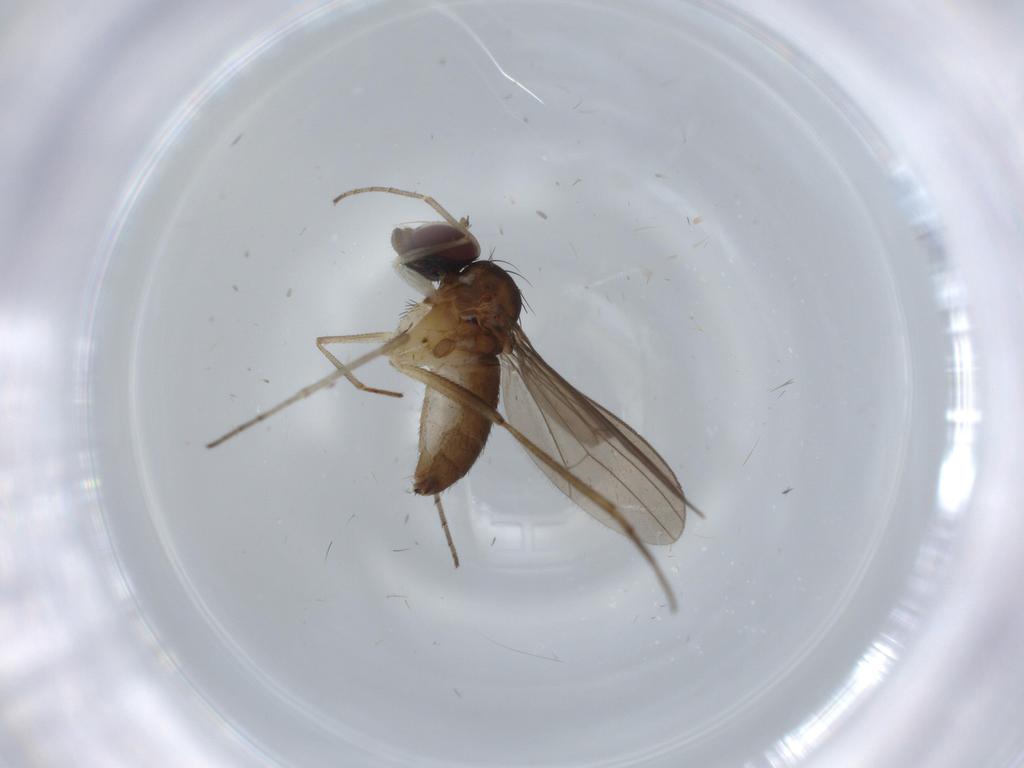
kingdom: Animalia
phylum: Arthropoda
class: Insecta
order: Diptera
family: Dolichopodidae
